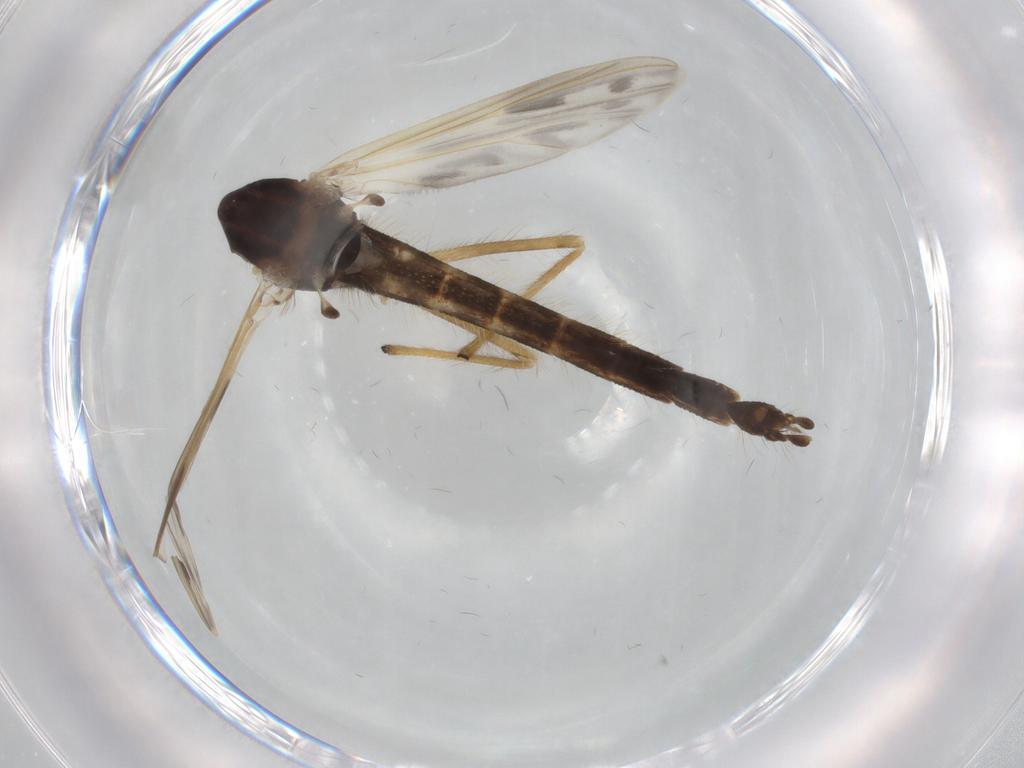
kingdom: Animalia
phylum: Arthropoda
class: Insecta
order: Diptera
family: Chironomidae
